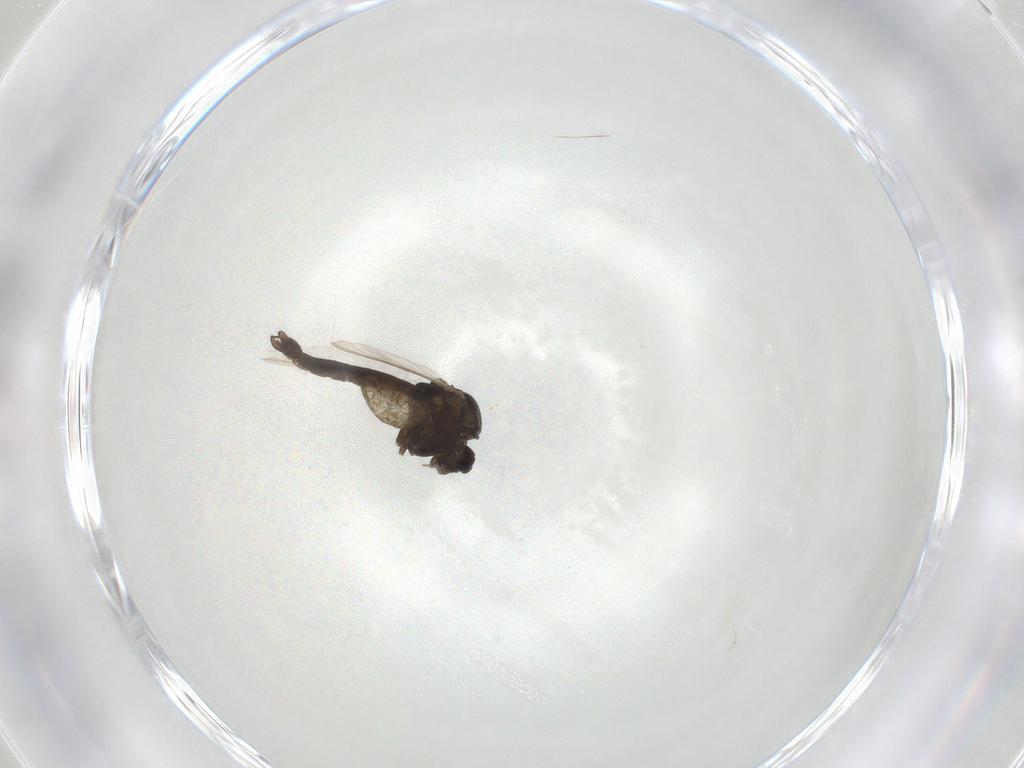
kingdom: Animalia
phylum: Arthropoda
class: Insecta
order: Diptera
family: Chironomidae
